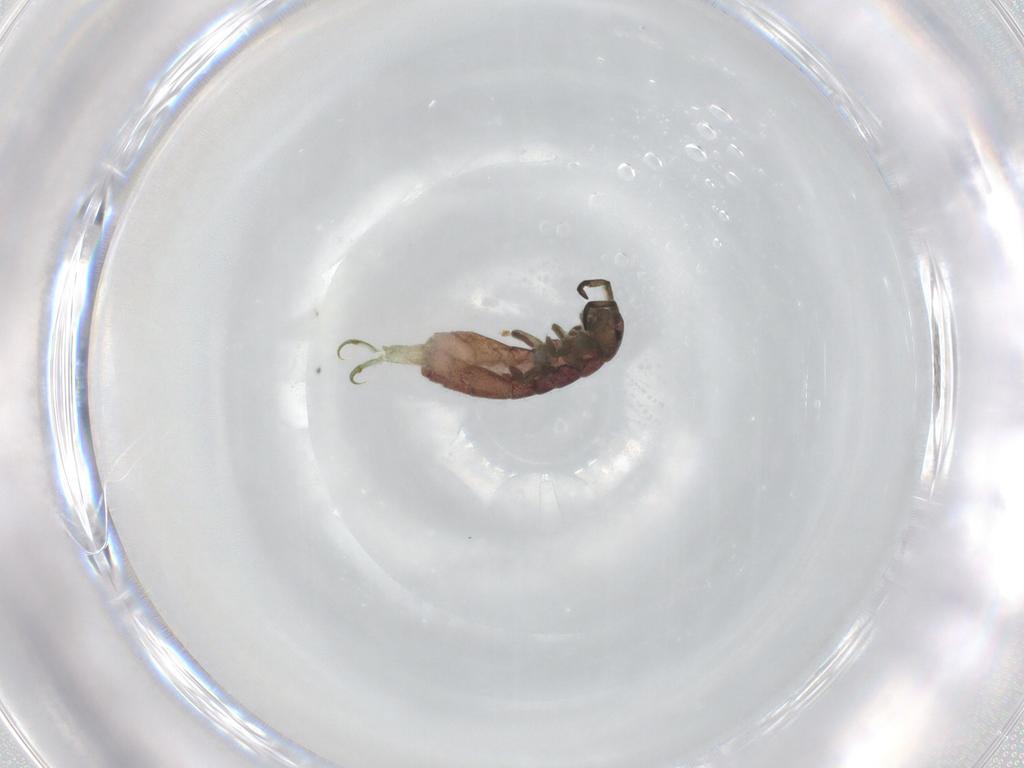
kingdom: Animalia
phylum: Arthropoda
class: Collembola
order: Entomobryomorpha
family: Isotomidae
